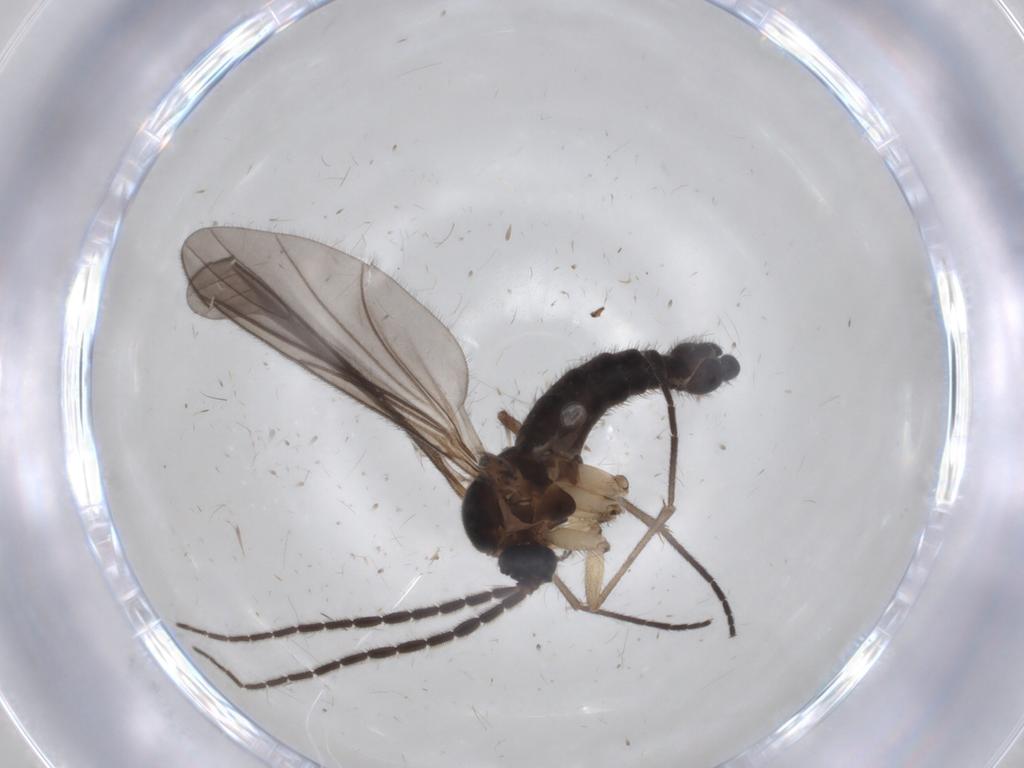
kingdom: Animalia
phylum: Arthropoda
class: Insecta
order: Diptera
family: Sciaridae
